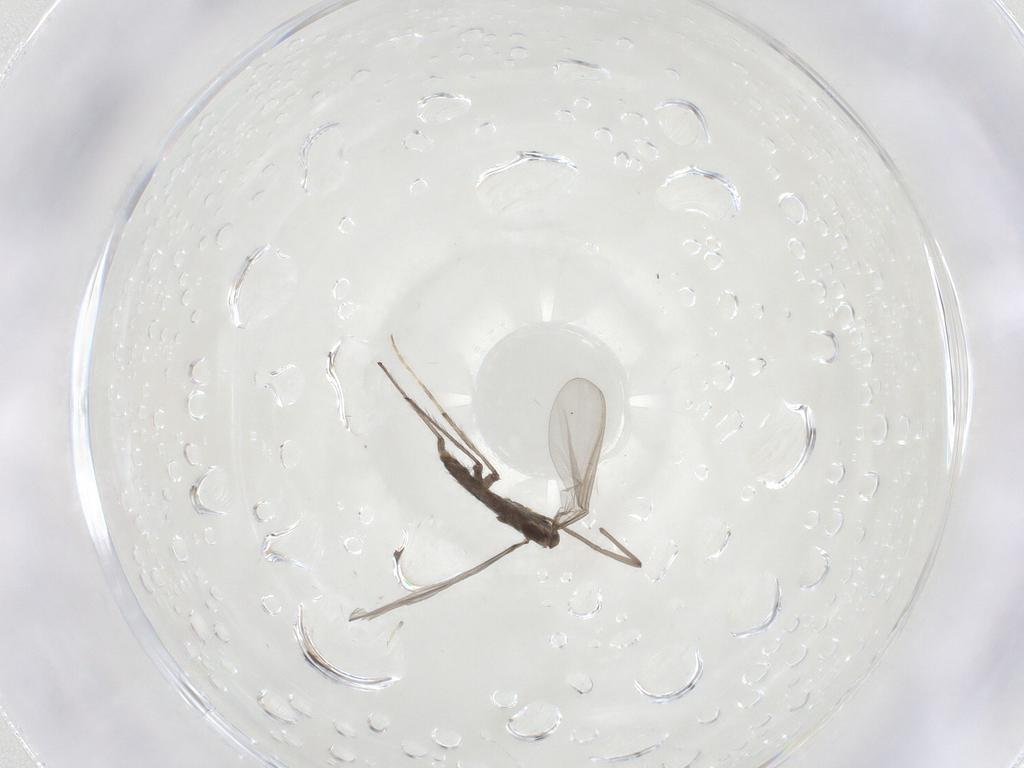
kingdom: Animalia
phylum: Arthropoda
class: Insecta
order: Diptera
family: Chironomidae
